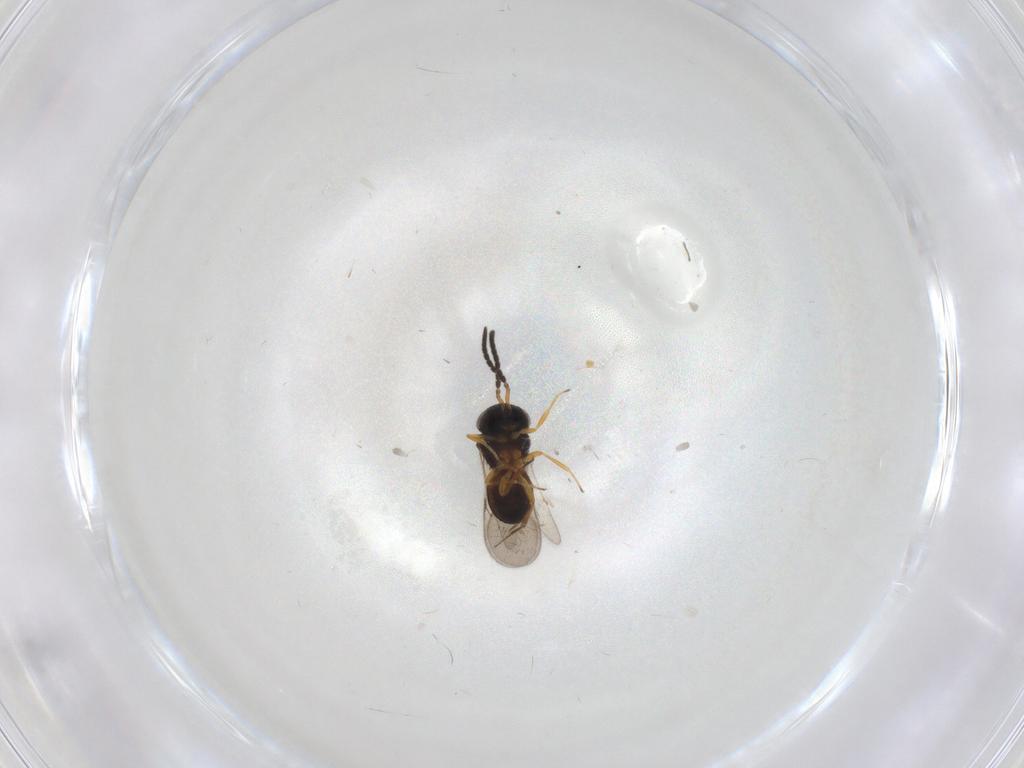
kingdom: Animalia
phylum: Arthropoda
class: Insecta
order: Hymenoptera
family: Scelionidae
